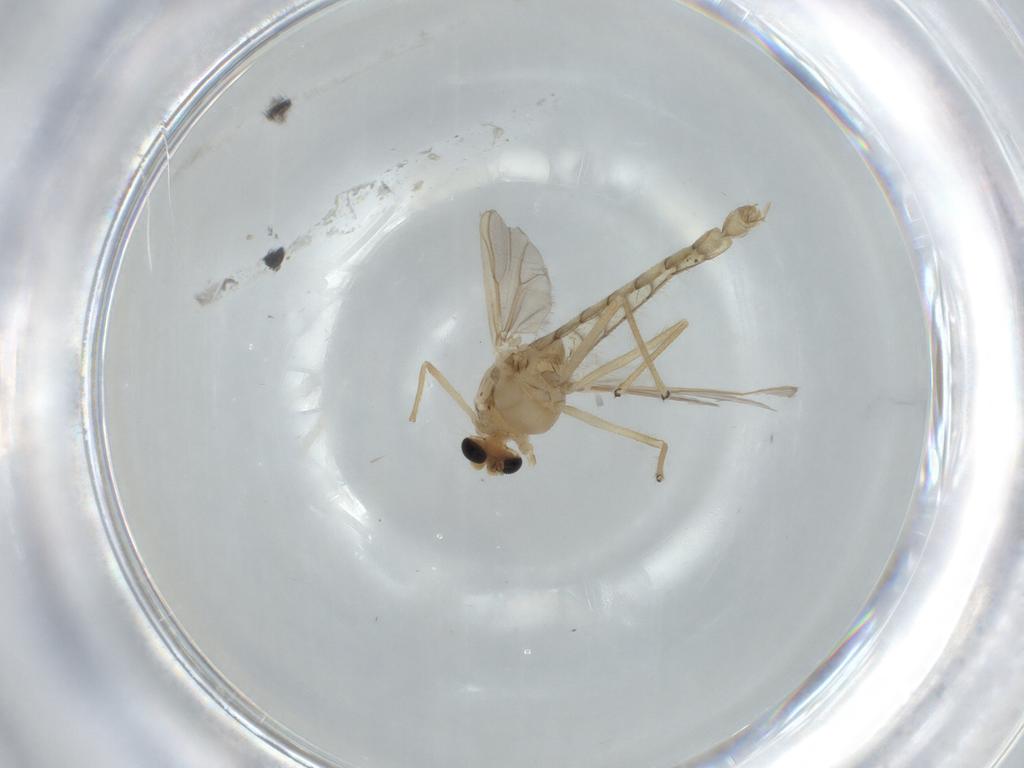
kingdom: Animalia
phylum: Arthropoda
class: Insecta
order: Diptera
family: Chironomidae
